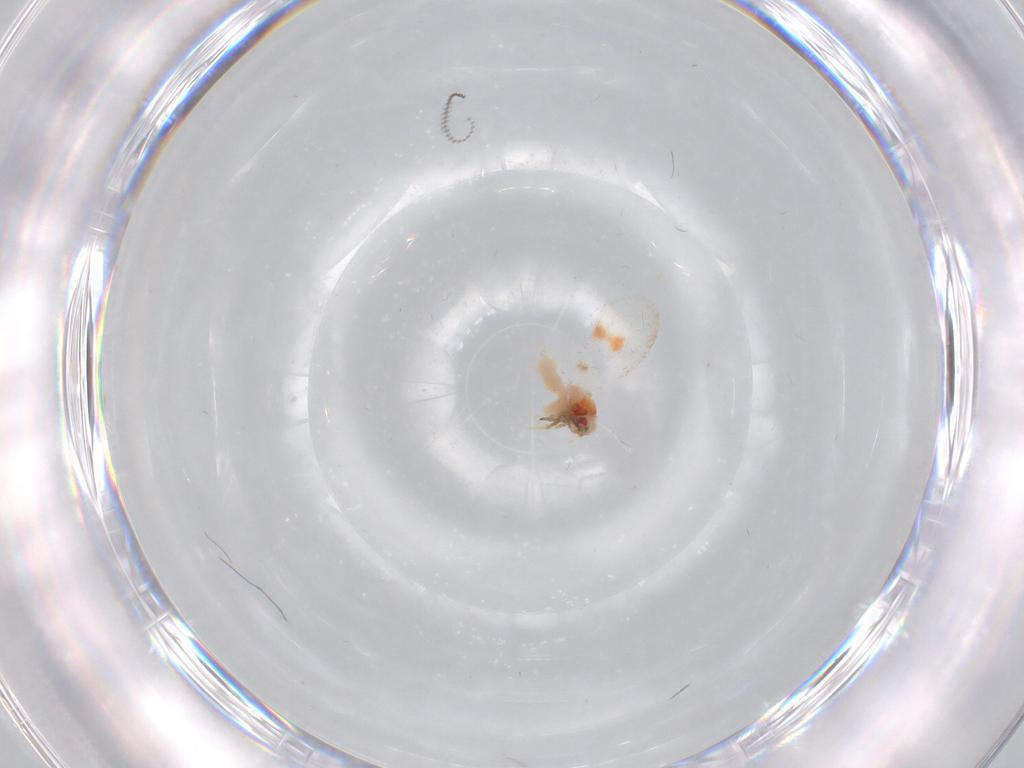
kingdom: Animalia
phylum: Arthropoda
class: Insecta
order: Hemiptera
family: Aleyrodidae
